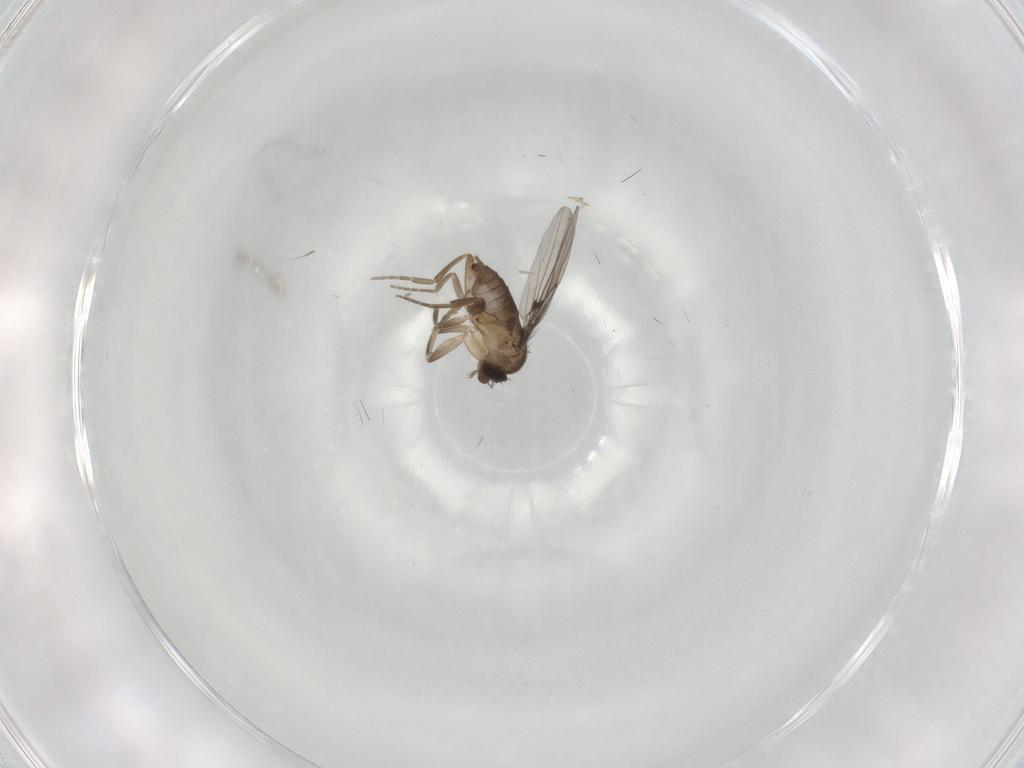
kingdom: Animalia
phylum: Arthropoda
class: Insecta
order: Diptera
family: Phoridae
